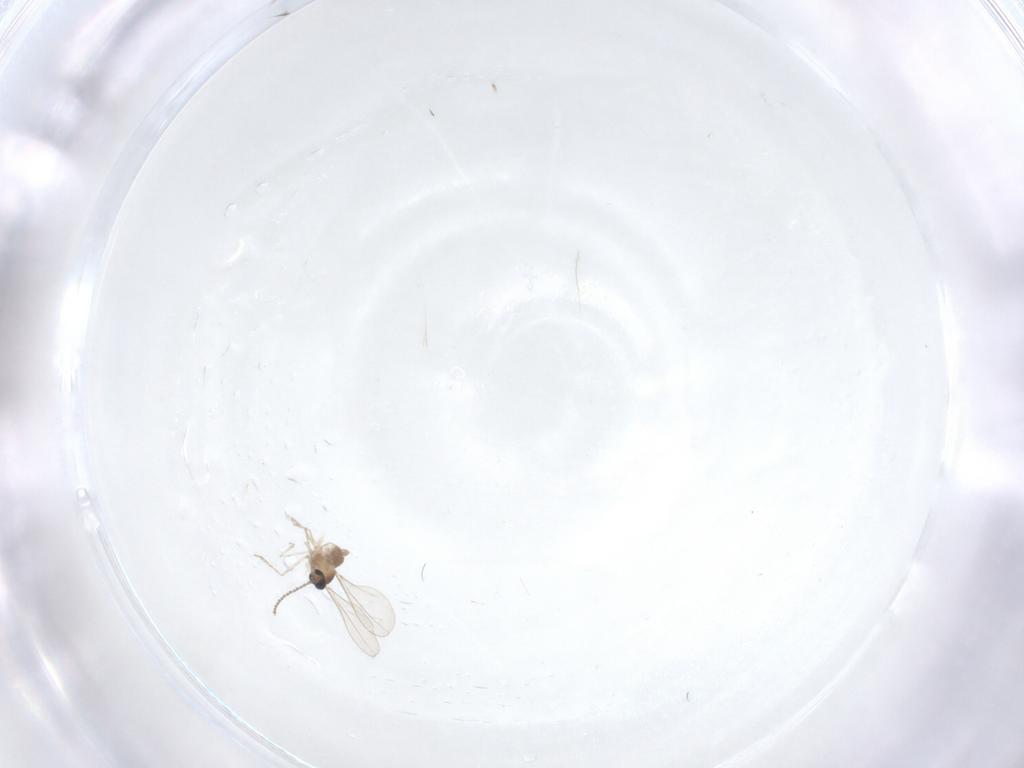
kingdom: Animalia
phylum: Arthropoda
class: Insecta
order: Diptera
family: Cecidomyiidae
